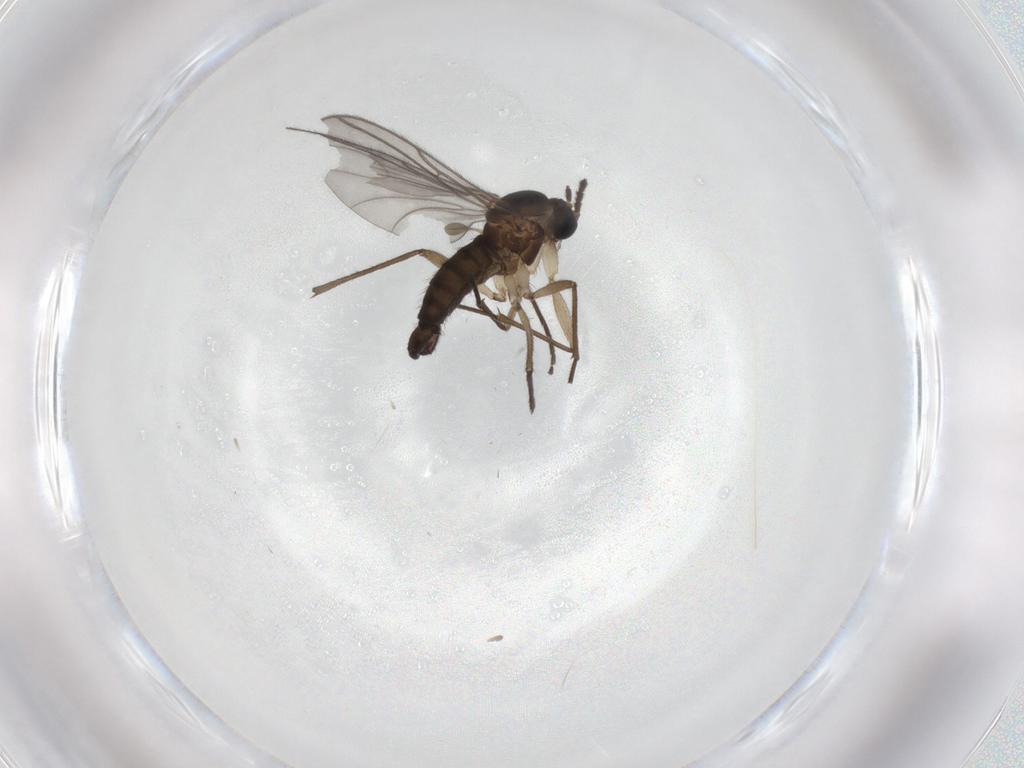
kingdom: Animalia
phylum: Arthropoda
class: Insecta
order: Diptera
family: Sciaridae
